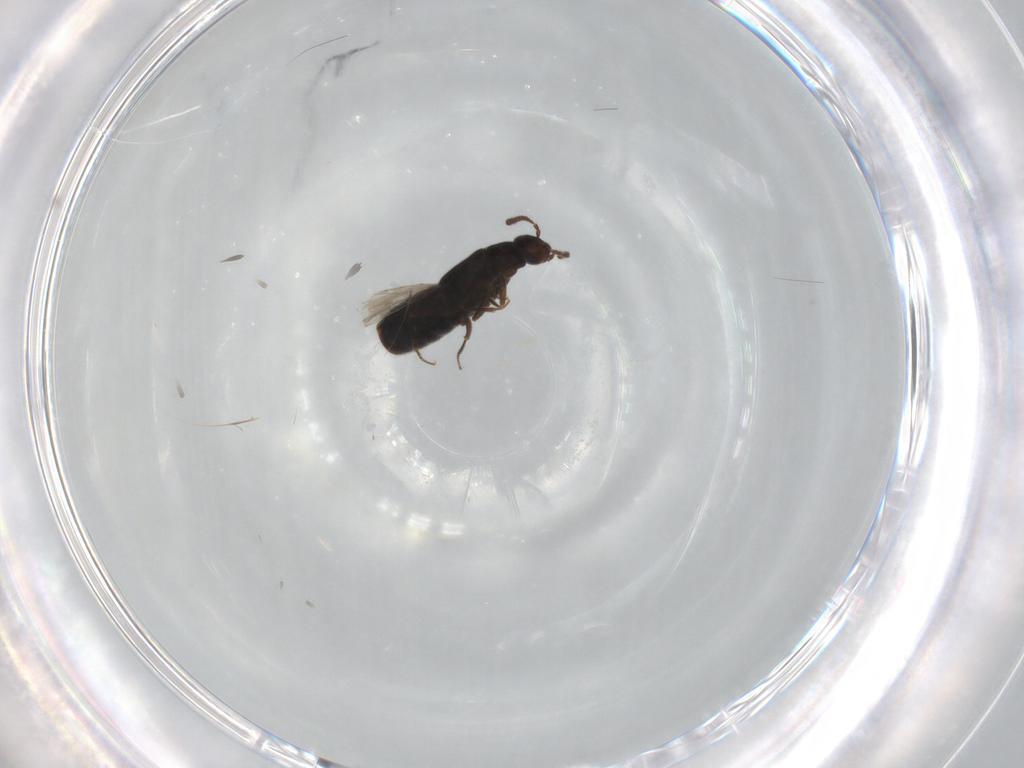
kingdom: Animalia
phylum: Arthropoda
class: Insecta
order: Coleoptera
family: Staphylinidae
